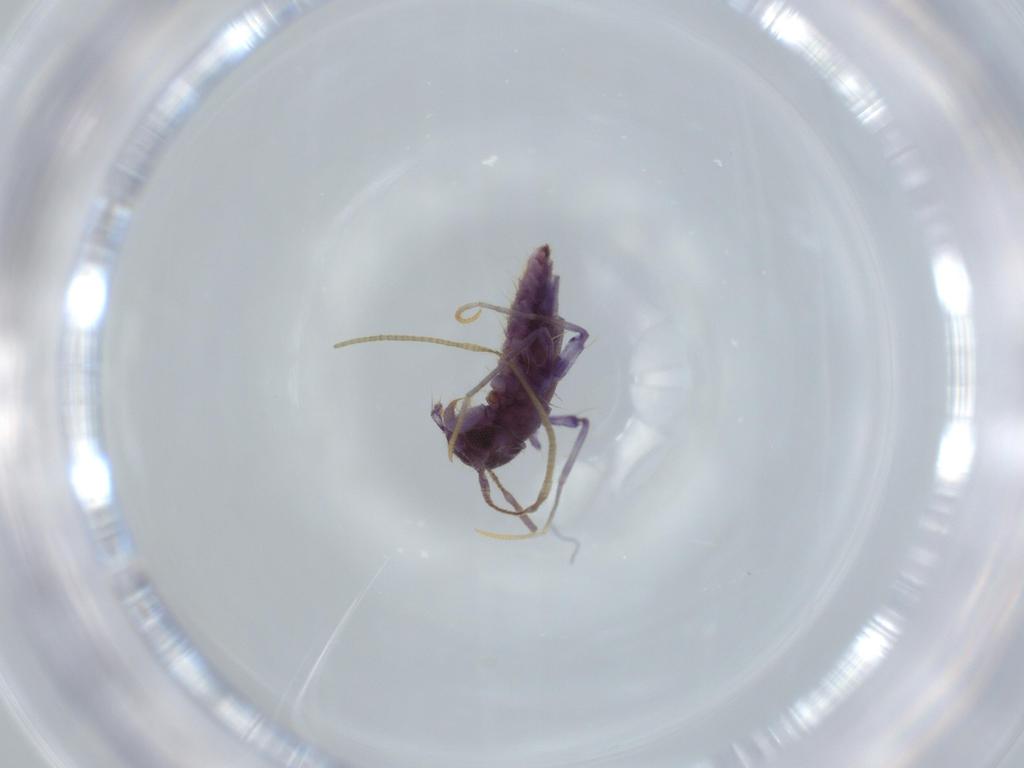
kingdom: Animalia
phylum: Arthropoda
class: Chilopoda
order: Scutigeromorpha
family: Scutigeridae
